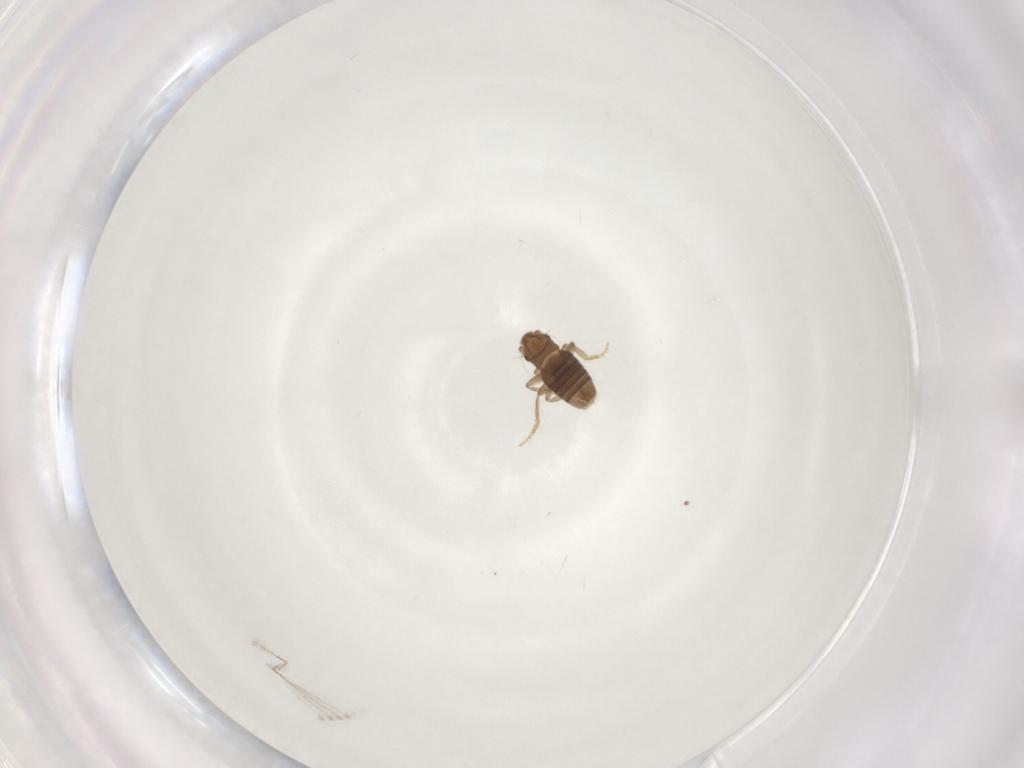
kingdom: Animalia
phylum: Arthropoda
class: Insecta
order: Diptera
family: Cecidomyiidae
